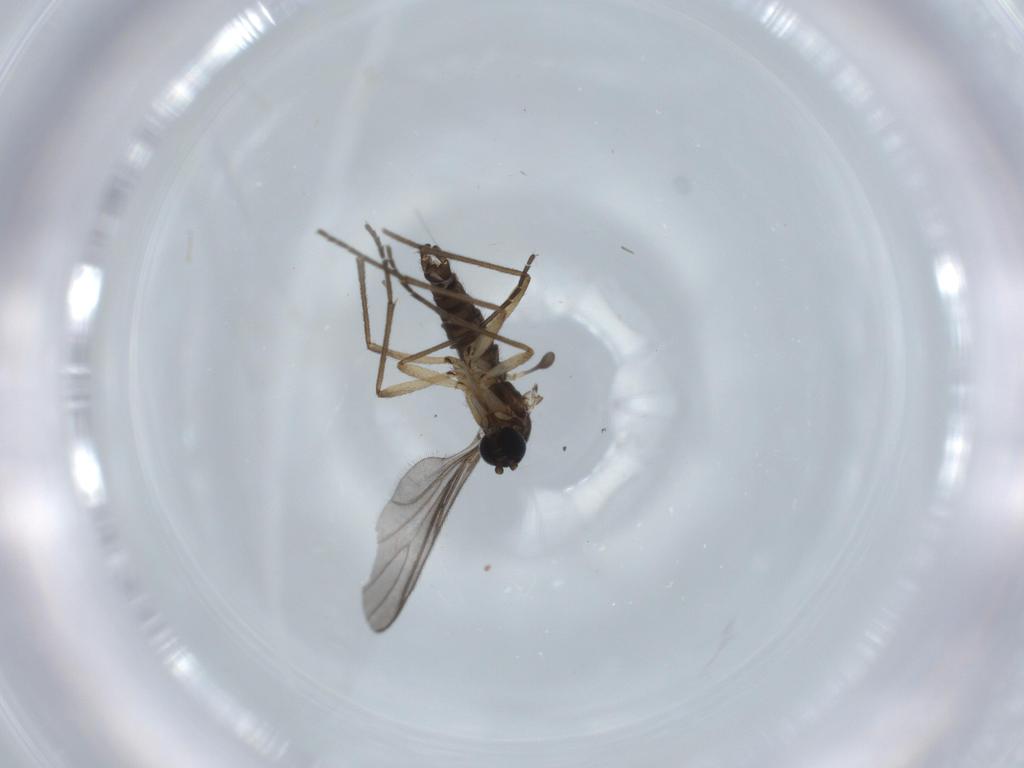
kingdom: Animalia
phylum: Arthropoda
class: Insecta
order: Diptera
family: Sciaridae
